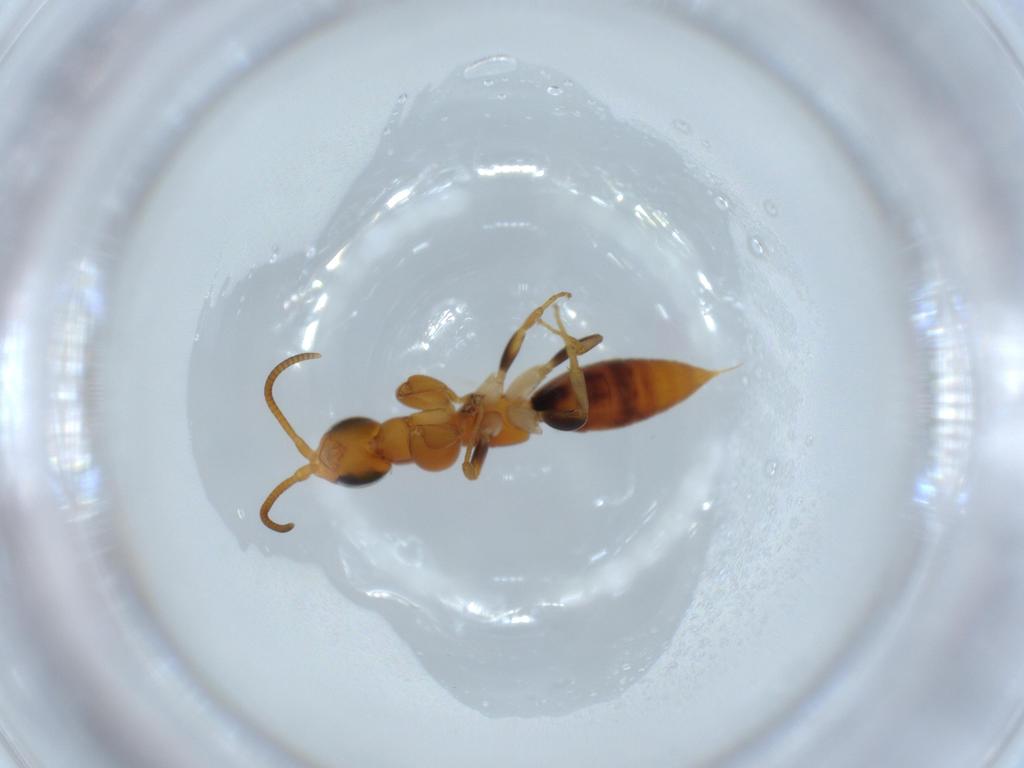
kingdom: Animalia
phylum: Arthropoda
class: Insecta
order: Hymenoptera
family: Sclerogibbidae
